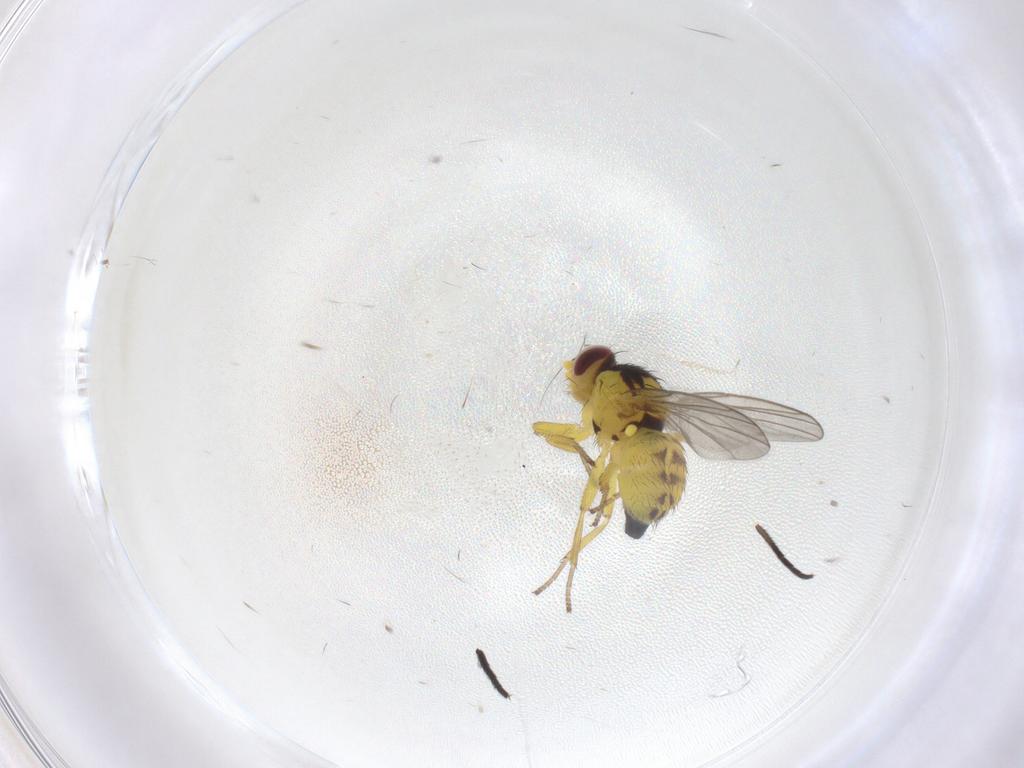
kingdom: Animalia
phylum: Arthropoda
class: Insecta
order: Diptera
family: Agromyzidae
